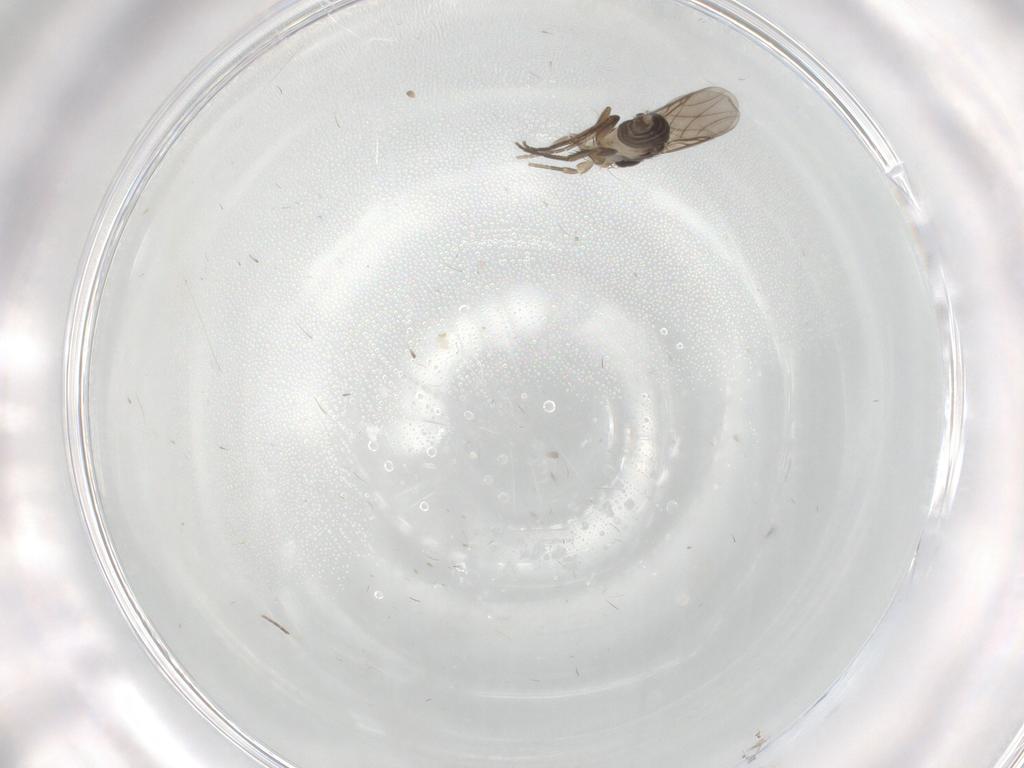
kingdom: Animalia
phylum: Arthropoda
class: Insecta
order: Diptera
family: Phoridae
